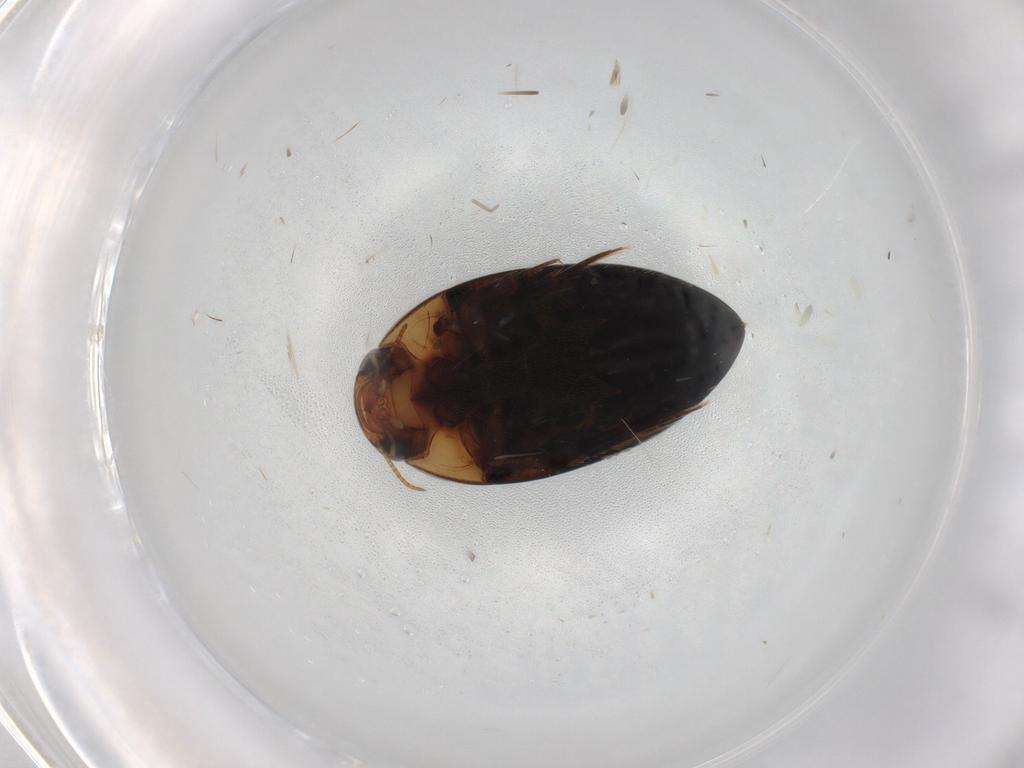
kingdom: Animalia
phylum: Arthropoda
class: Insecta
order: Coleoptera
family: Noteridae
